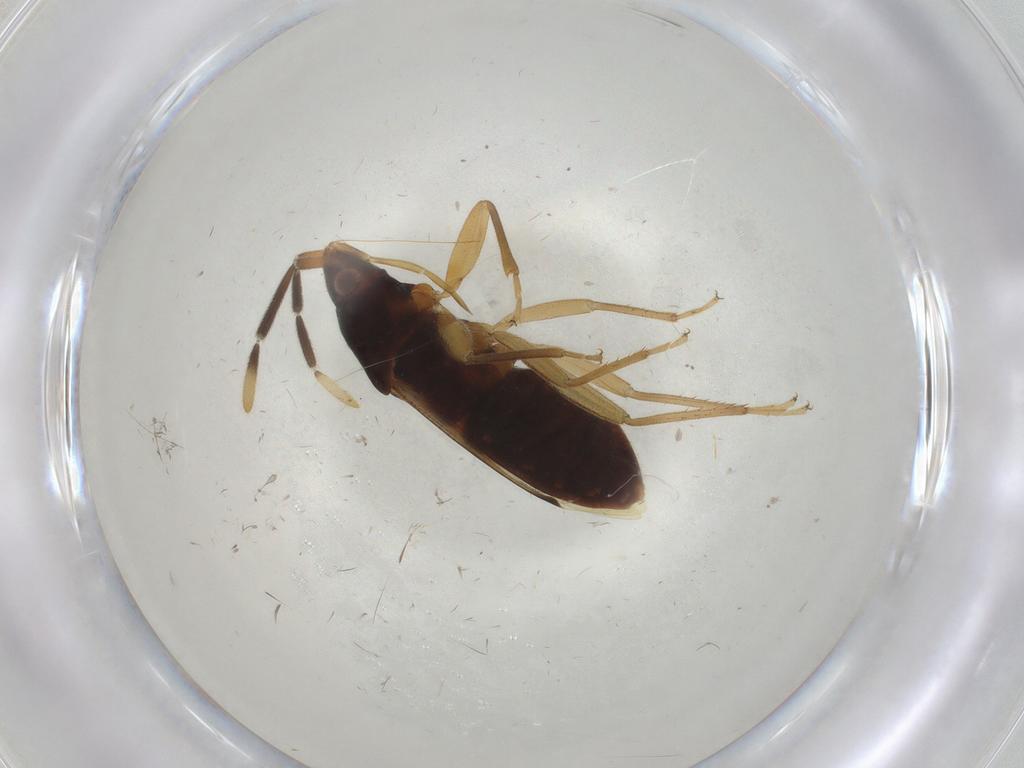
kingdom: Animalia
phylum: Arthropoda
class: Insecta
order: Hemiptera
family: Rhyparochromidae
